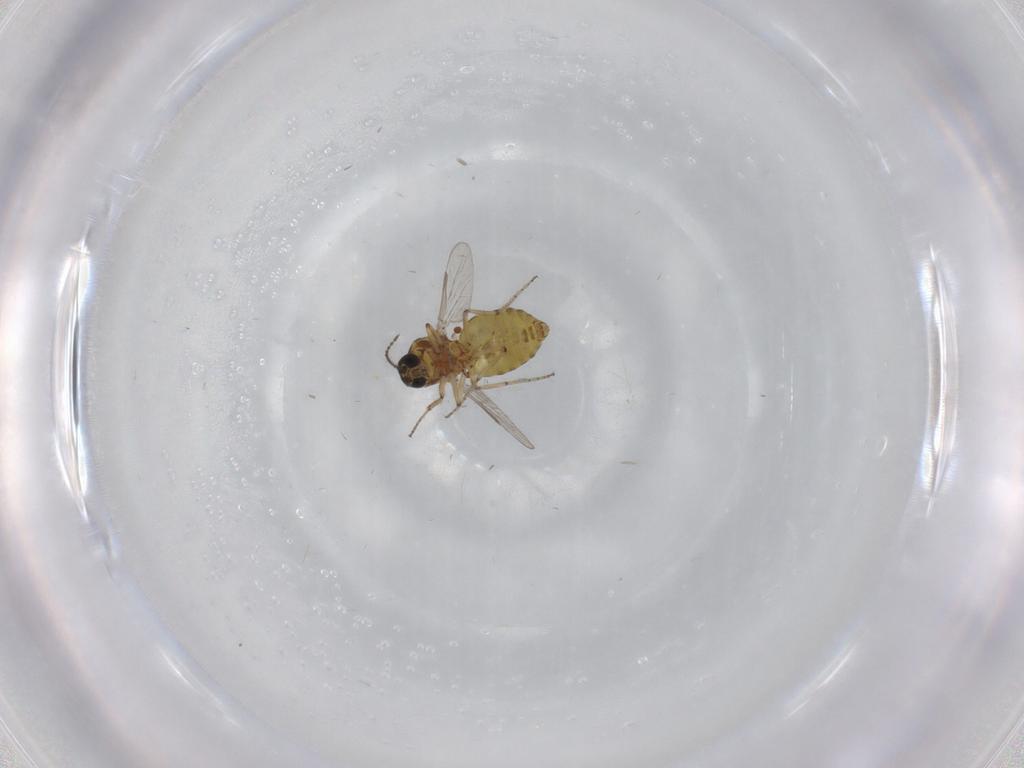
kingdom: Animalia
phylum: Arthropoda
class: Insecta
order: Diptera
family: Ceratopogonidae
